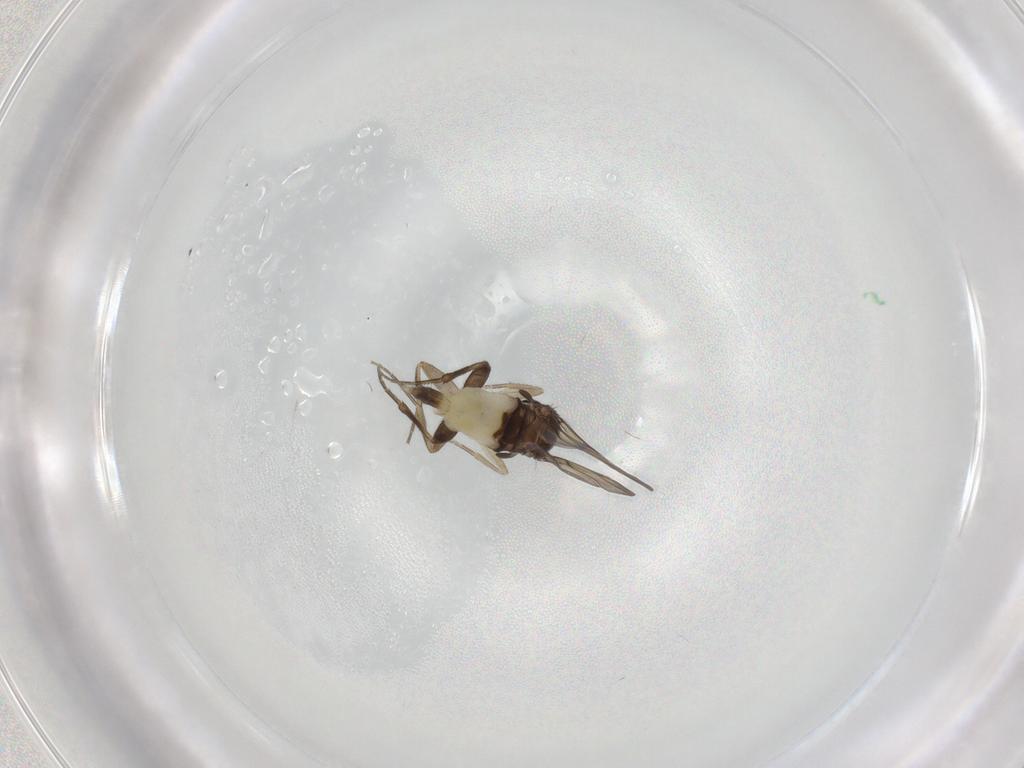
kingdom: Animalia
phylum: Arthropoda
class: Insecta
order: Diptera
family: Phoridae
